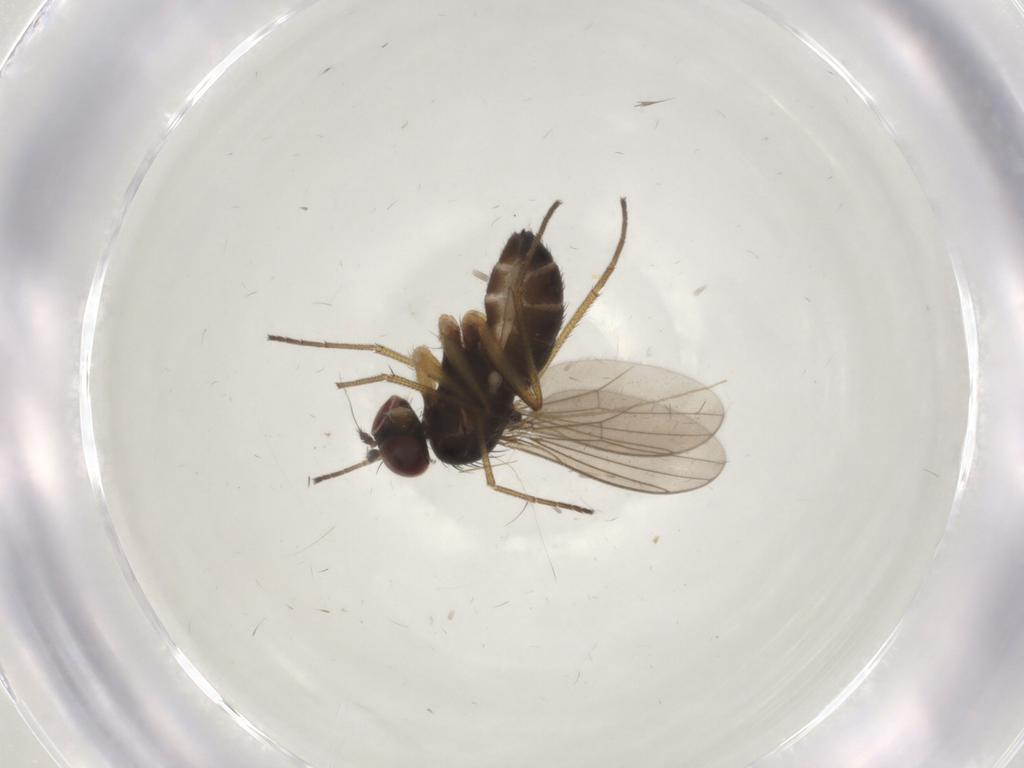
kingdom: Animalia
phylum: Arthropoda
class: Insecta
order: Diptera
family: Dolichopodidae
